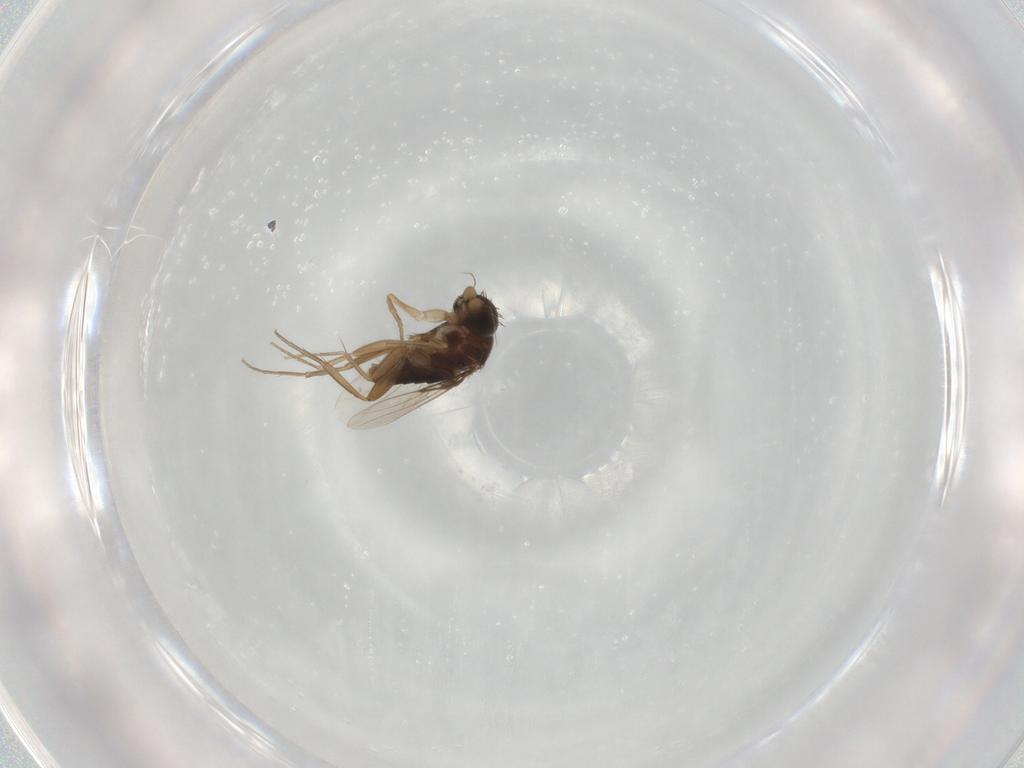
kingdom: Animalia
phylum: Arthropoda
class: Insecta
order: Diptera
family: Phoridae
